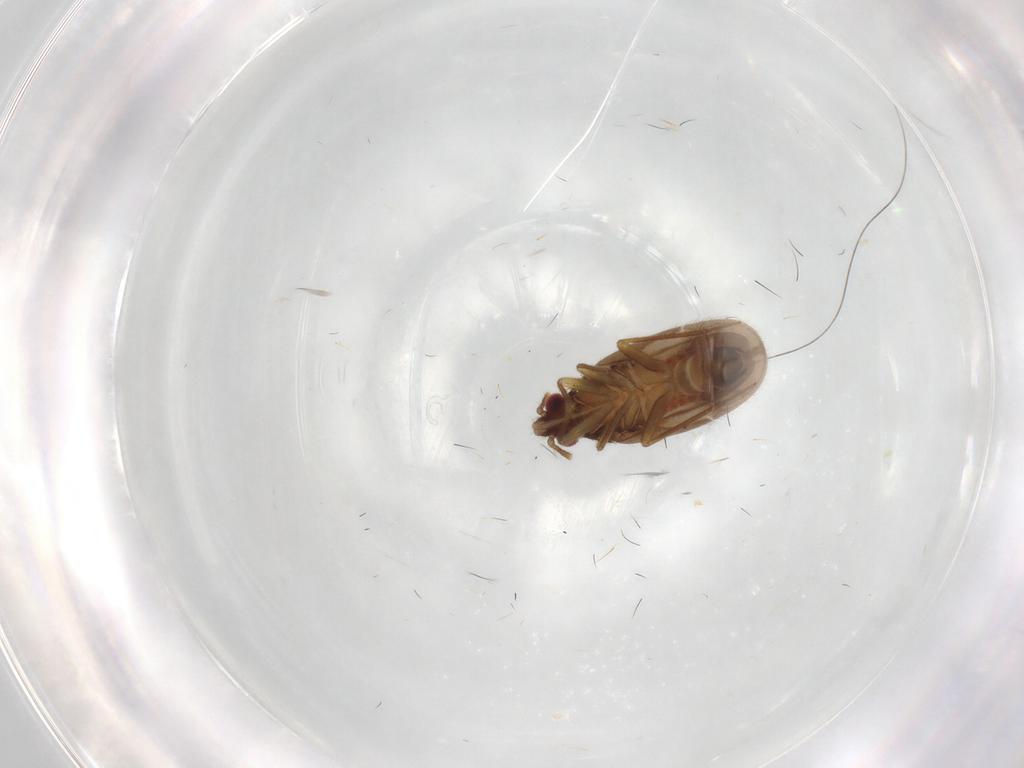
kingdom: Animalia
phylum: Arthropoda
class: Insecta
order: Hemiptera
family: Ceratocombidae
